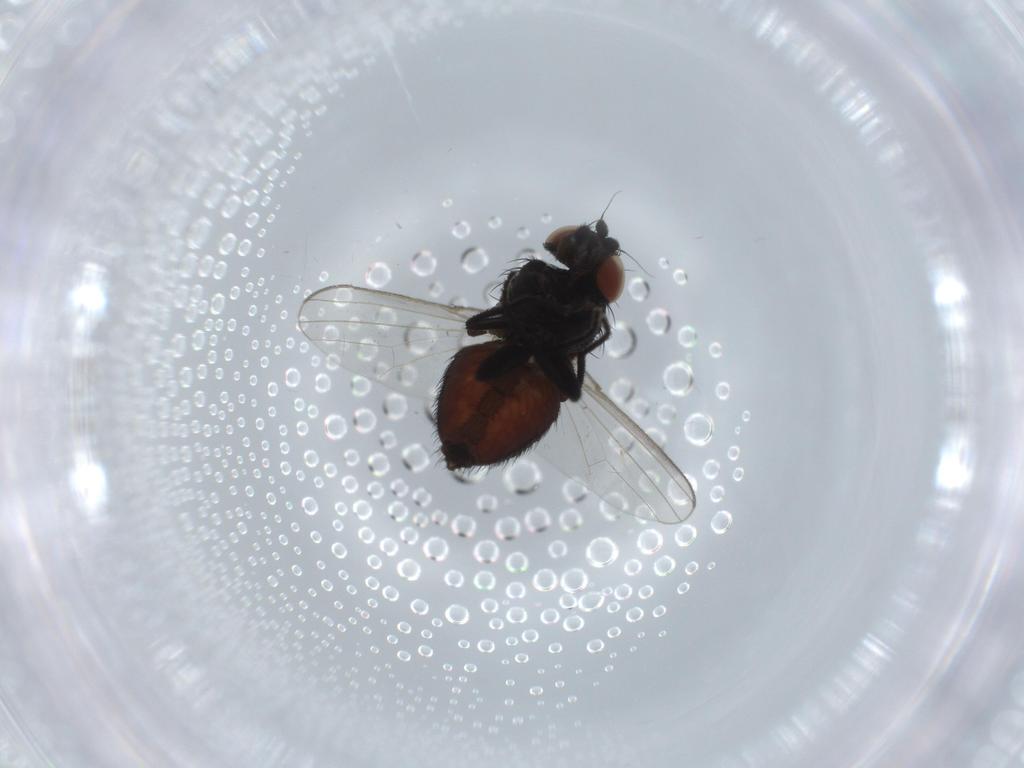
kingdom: Animalia
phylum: Arthropoda
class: Insecta
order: Diptera
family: Milichiidae
